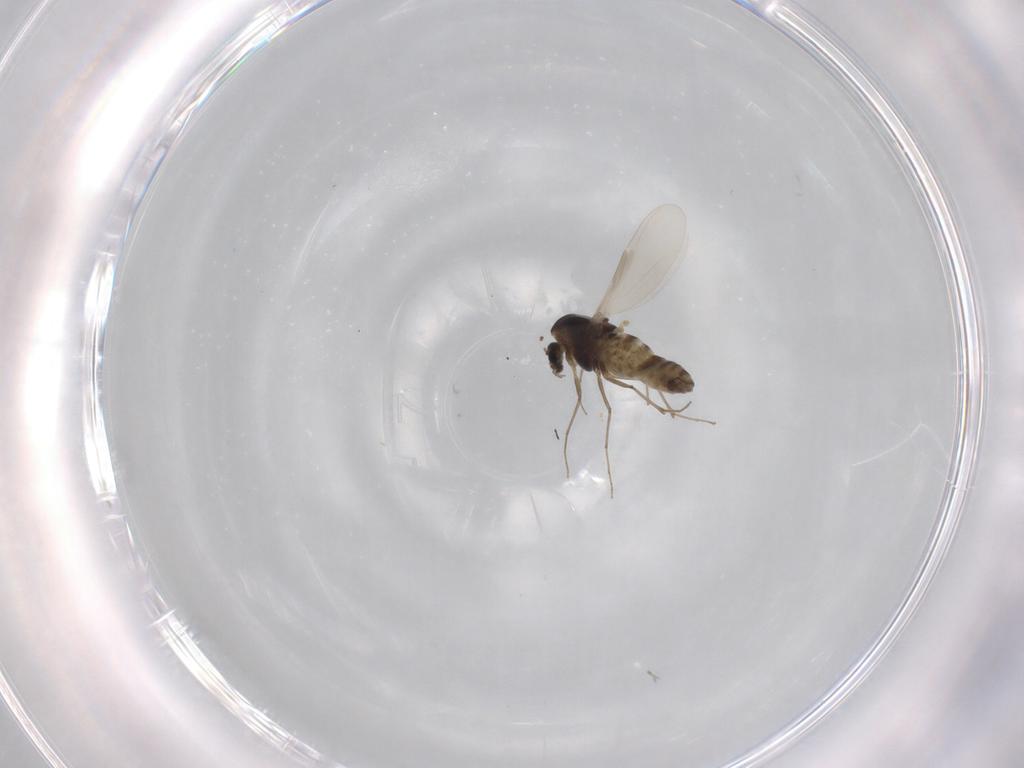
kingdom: Animalia
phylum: Arthropoda
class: Insecta
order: Diptera
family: Chironomidae
